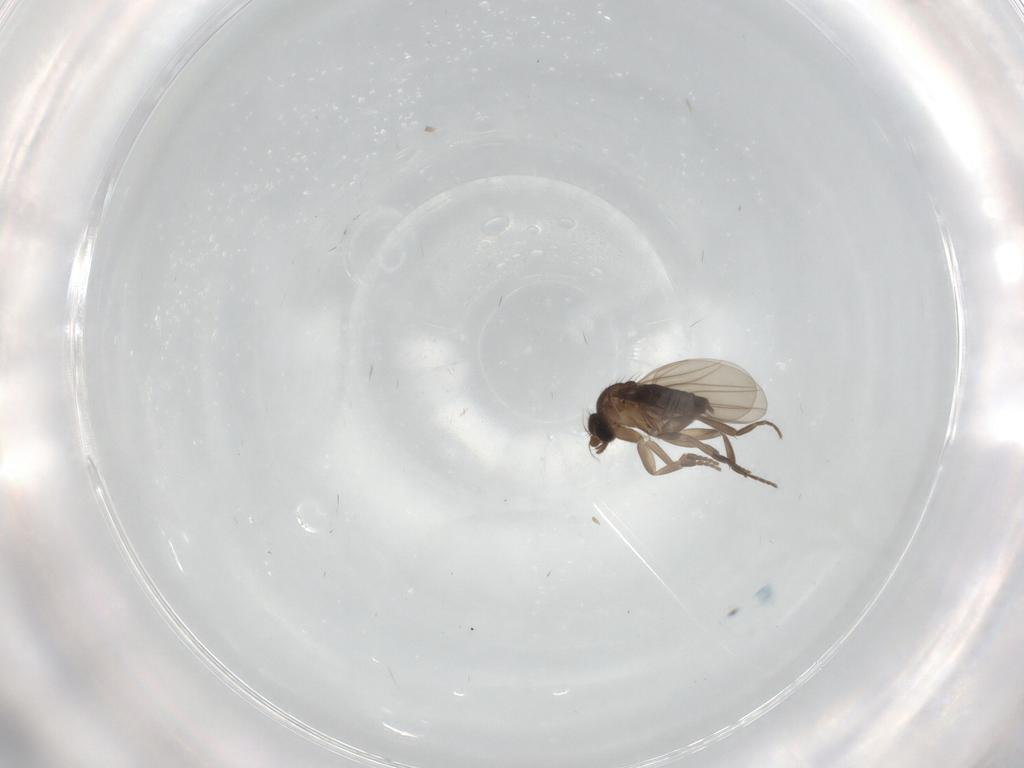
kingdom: Animalia
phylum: Arthropoda
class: Insecta
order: Diptera
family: Phoridae
